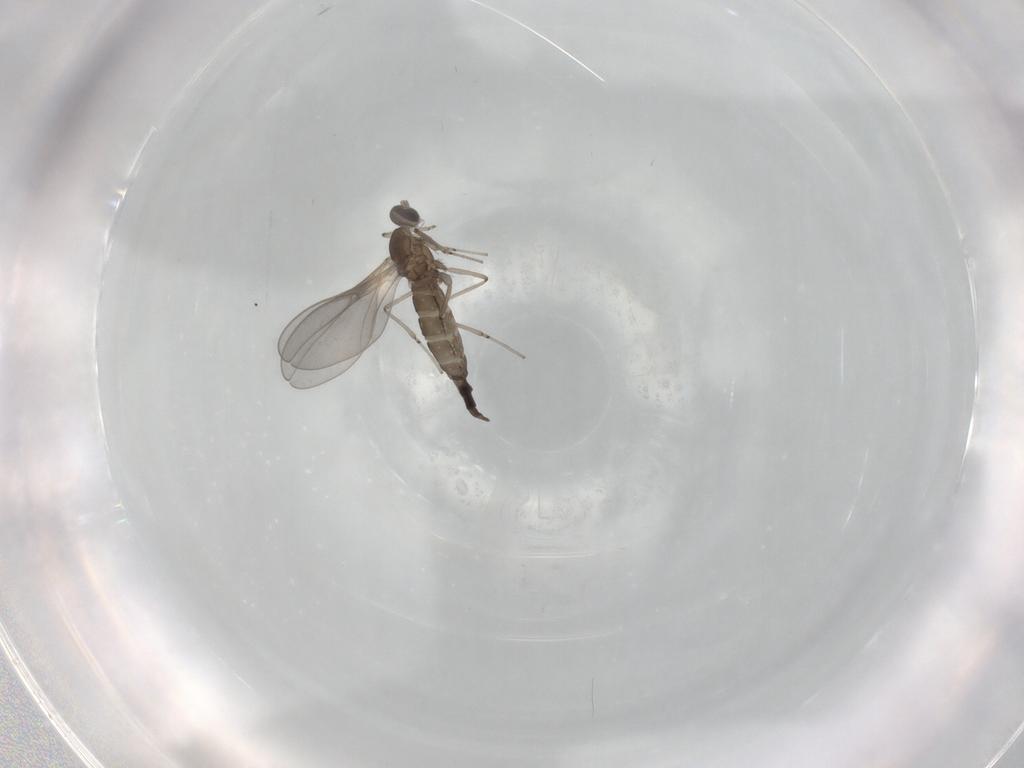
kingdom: Animalia
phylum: Arthropoda
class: Insecta
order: Diptera
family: Cecidomyiidae
